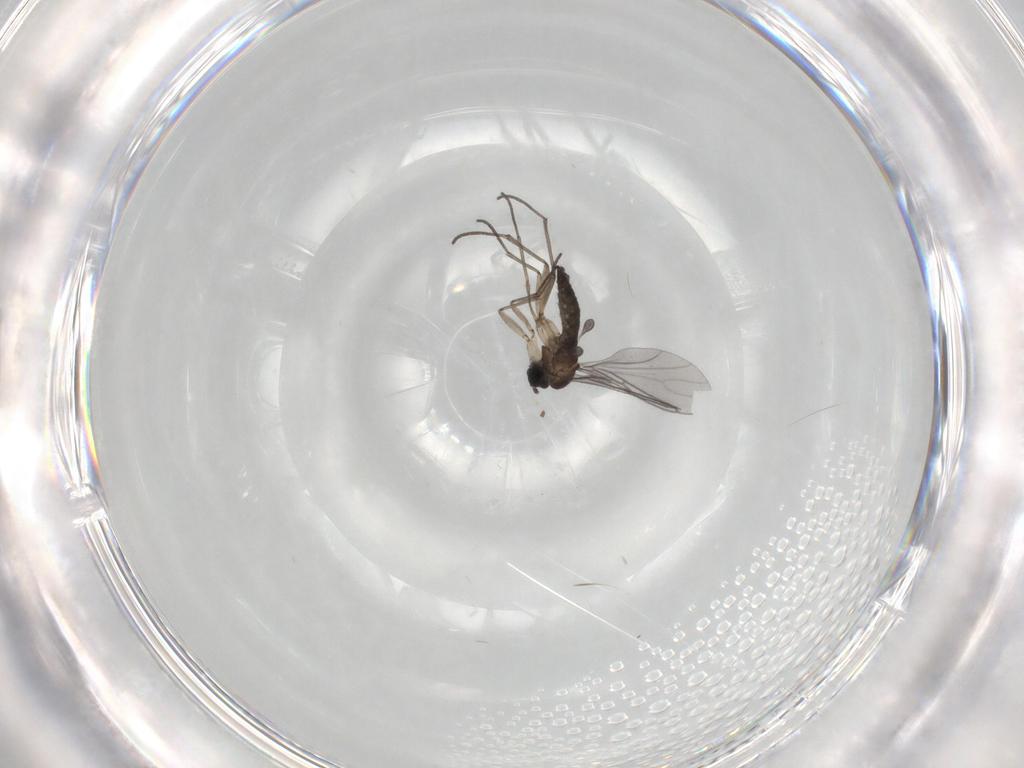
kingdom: Animalia
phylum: Arthropoda
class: Insecta
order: Diptera
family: Sciaridae
